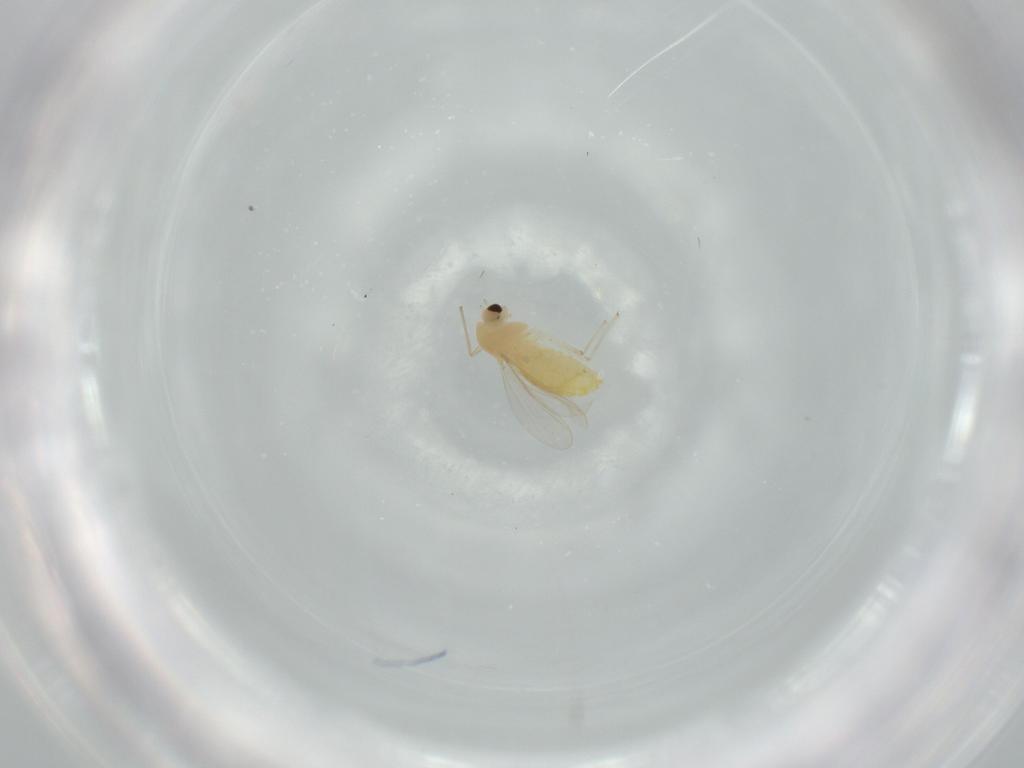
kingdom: Animalia
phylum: Arthropoda
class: Insecta
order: Diptera
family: Chironomidae
